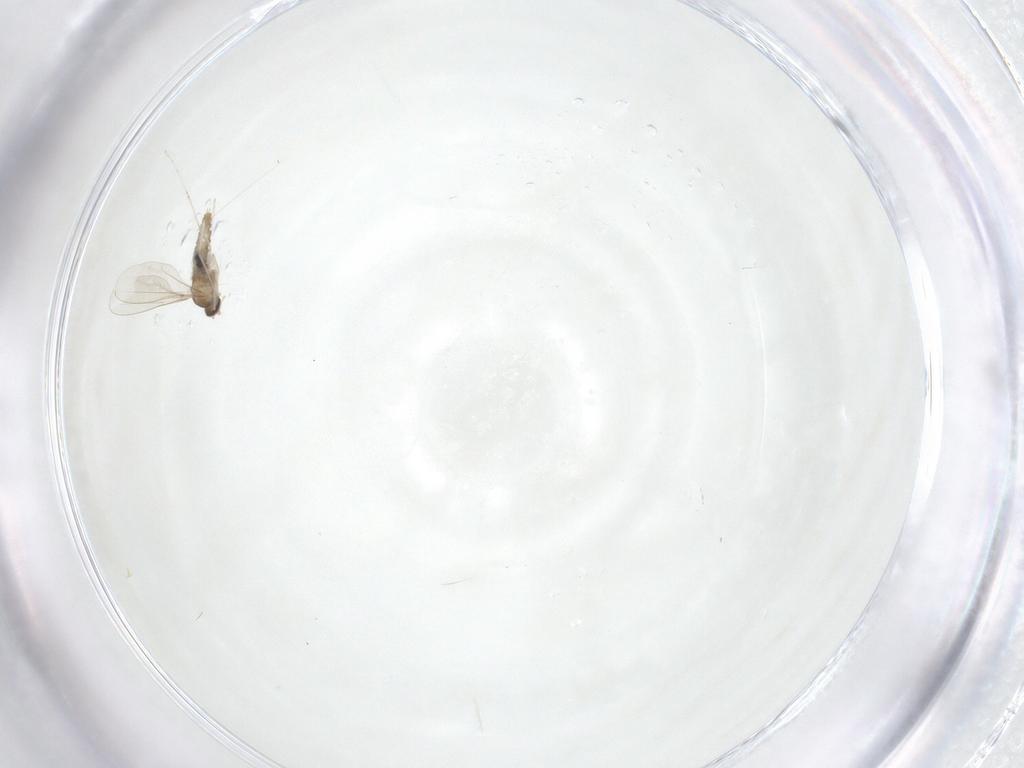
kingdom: Animalia
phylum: Arthropoda
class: Insecta
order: Diptera
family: Cecidomyiidae
